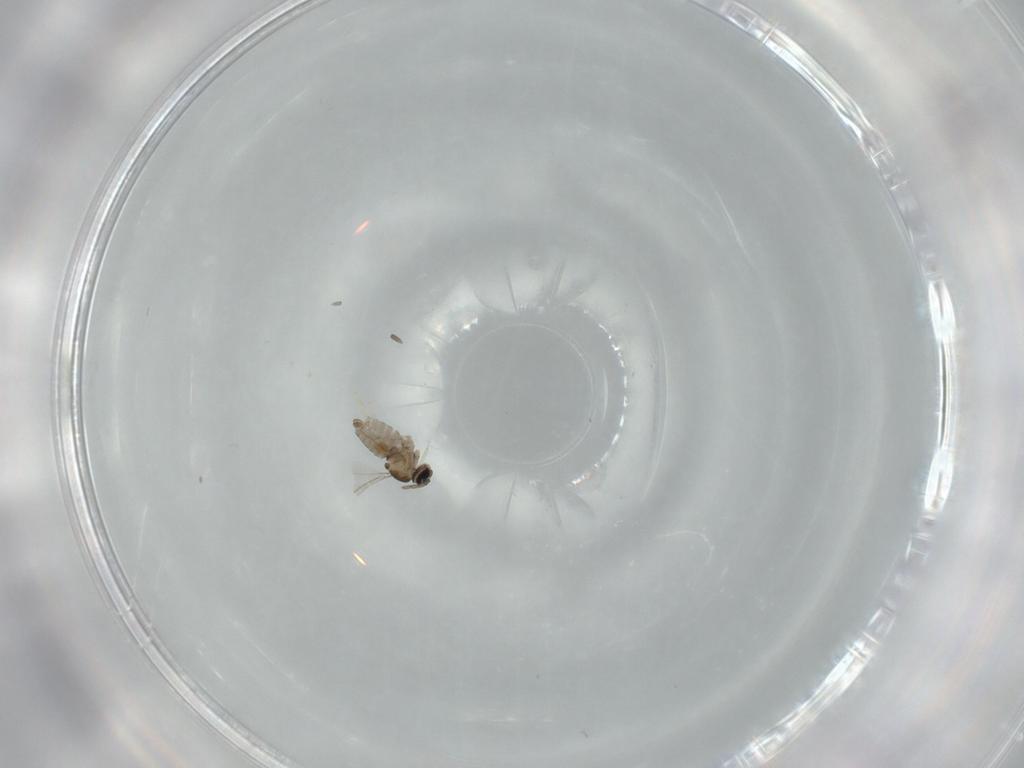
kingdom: Animalia
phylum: Arthropoda
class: Insecta
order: Diptera
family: Cecidomyiidae
